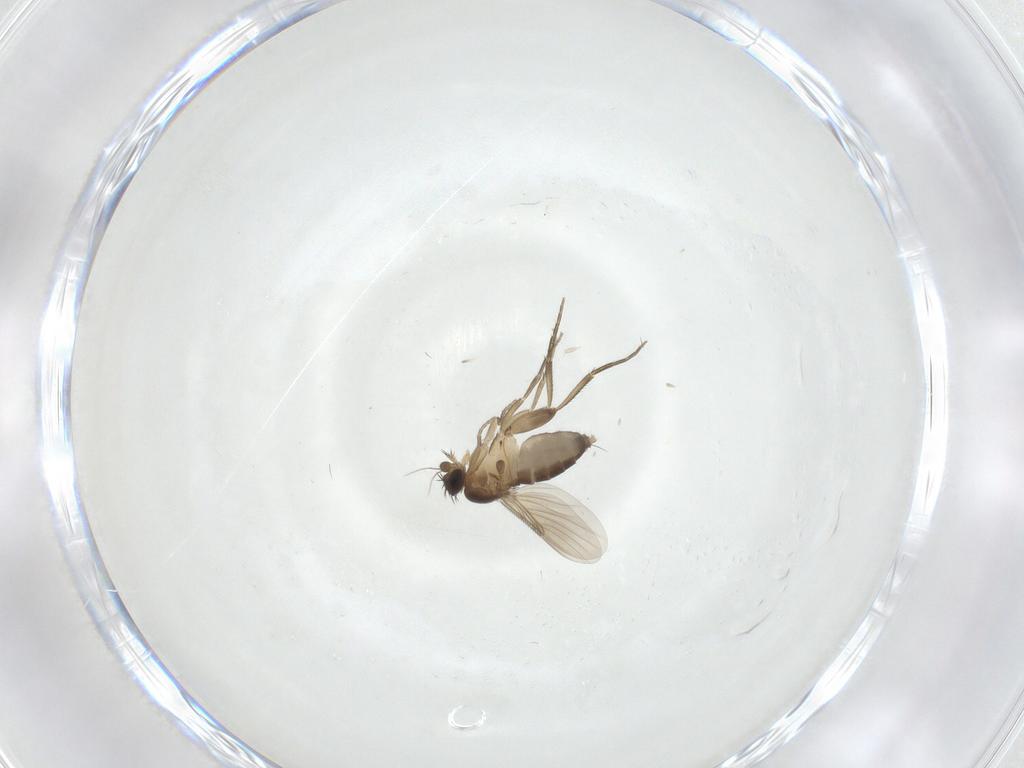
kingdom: Animalia
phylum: Arthropoda
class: Insecta
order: Diptera
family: Phoridae
